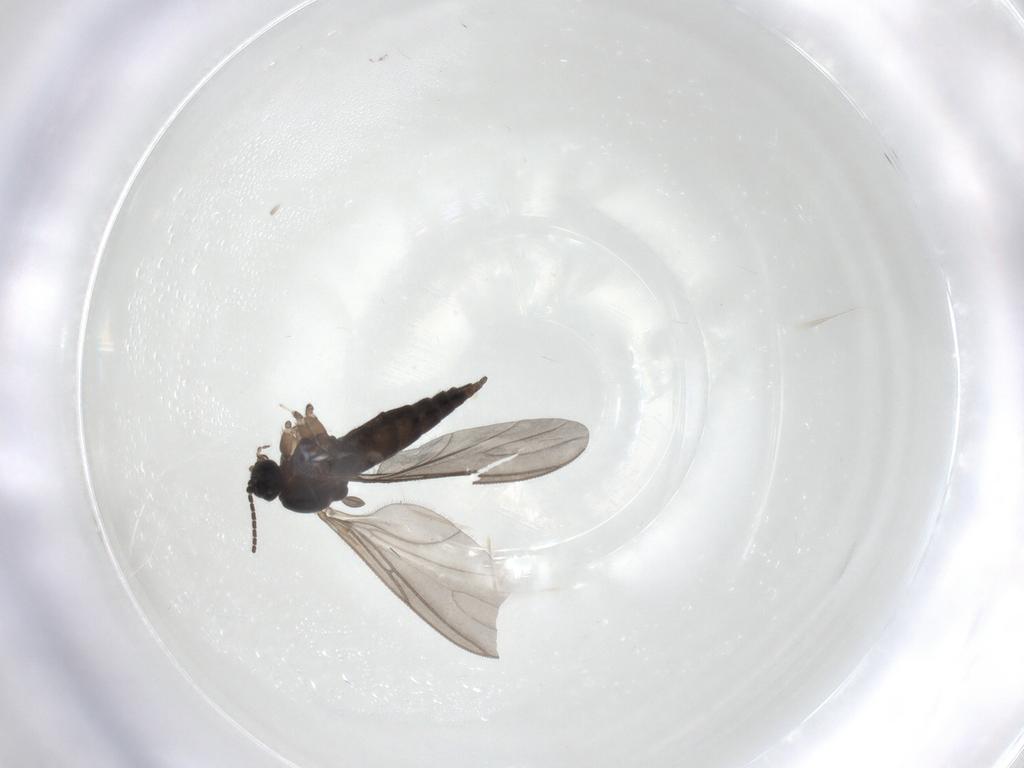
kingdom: Animalia
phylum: Arthropoda
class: Insecta
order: Diptera
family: Sciaridae
